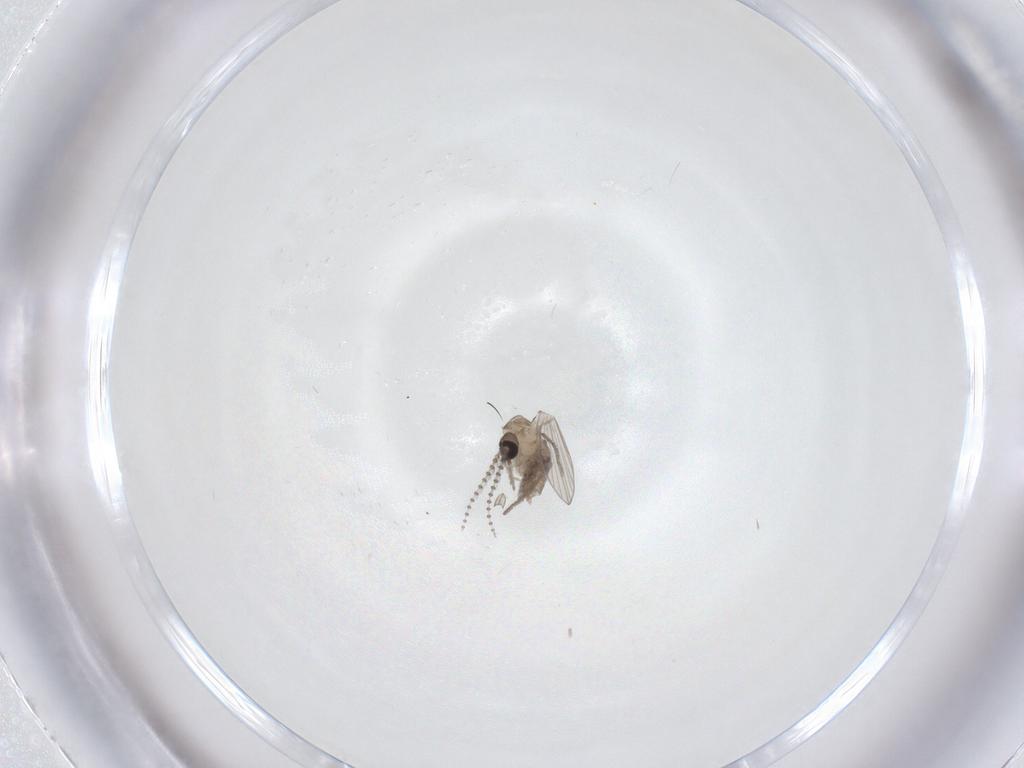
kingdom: Animalia
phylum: Arthropoda
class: Insecta
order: Diptera
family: Psychodidae
